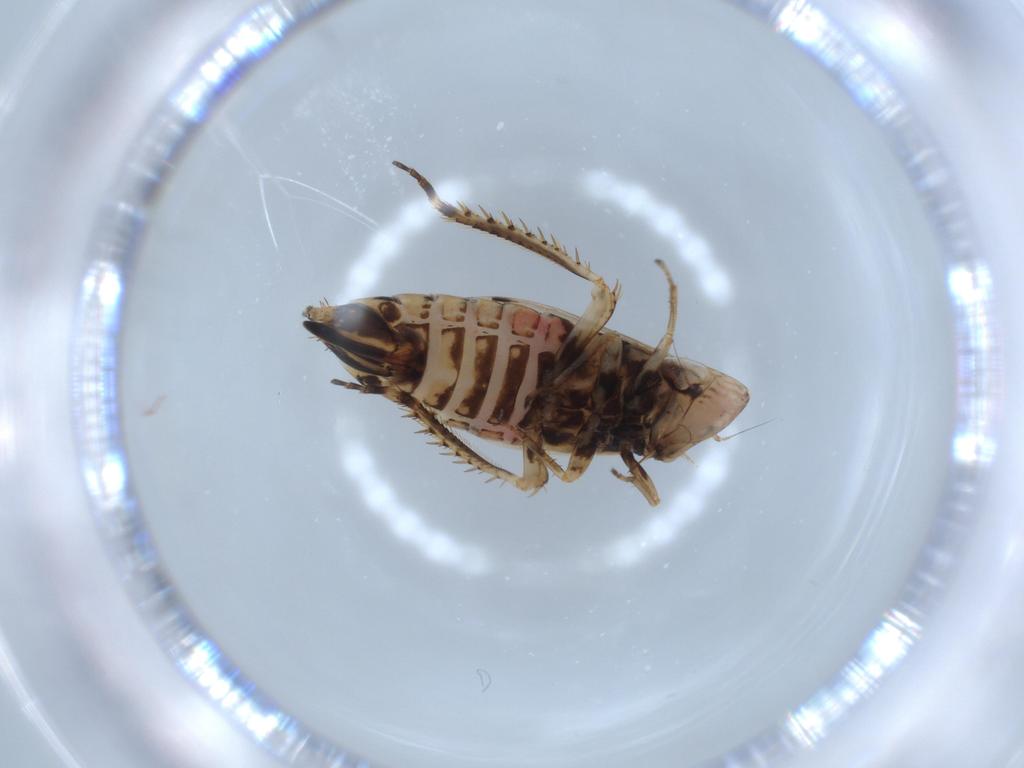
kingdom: Animalia
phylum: Arthropoda
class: Insecta
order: Hemiptera
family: Cicadellidae
